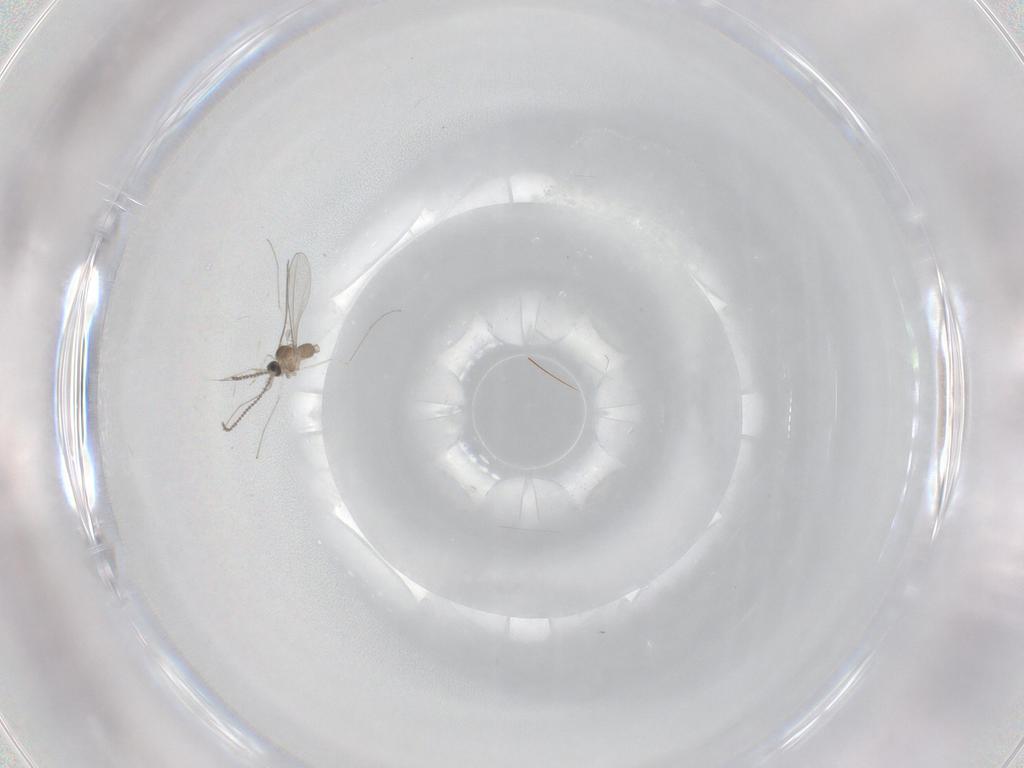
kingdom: Animalia
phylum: Arthropoda
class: Insecta
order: Diptera
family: Cecidomyiidae
